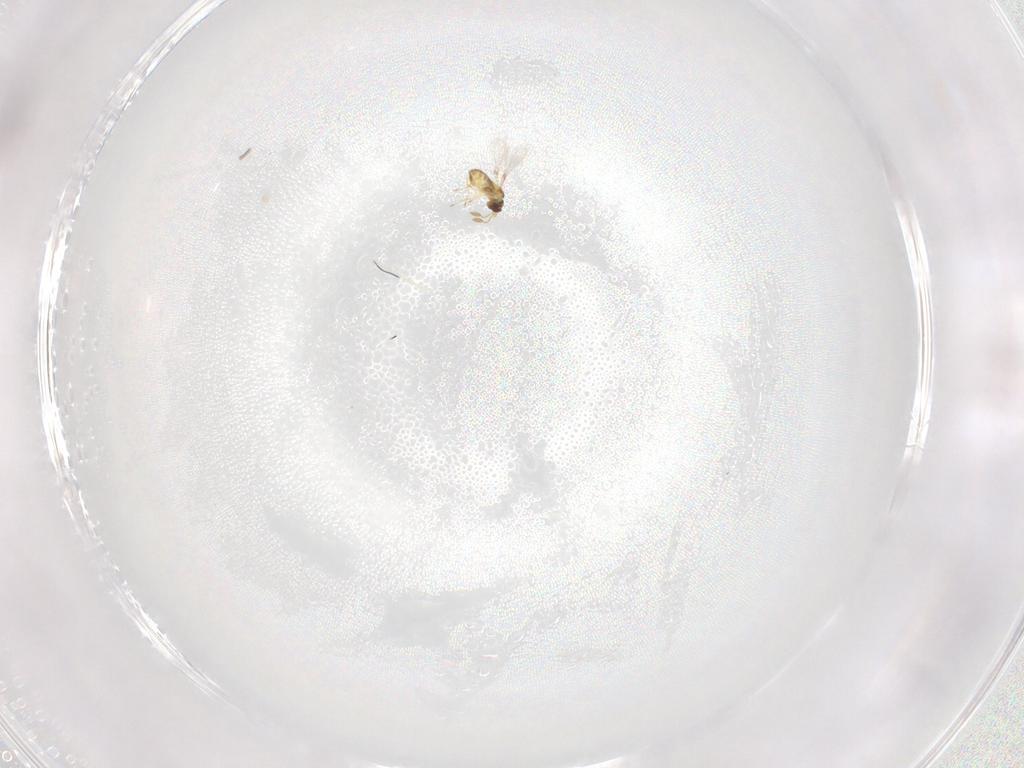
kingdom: Animalia
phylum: Arthropoda
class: Insecta
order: Hymenoptera
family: Mymaridae
